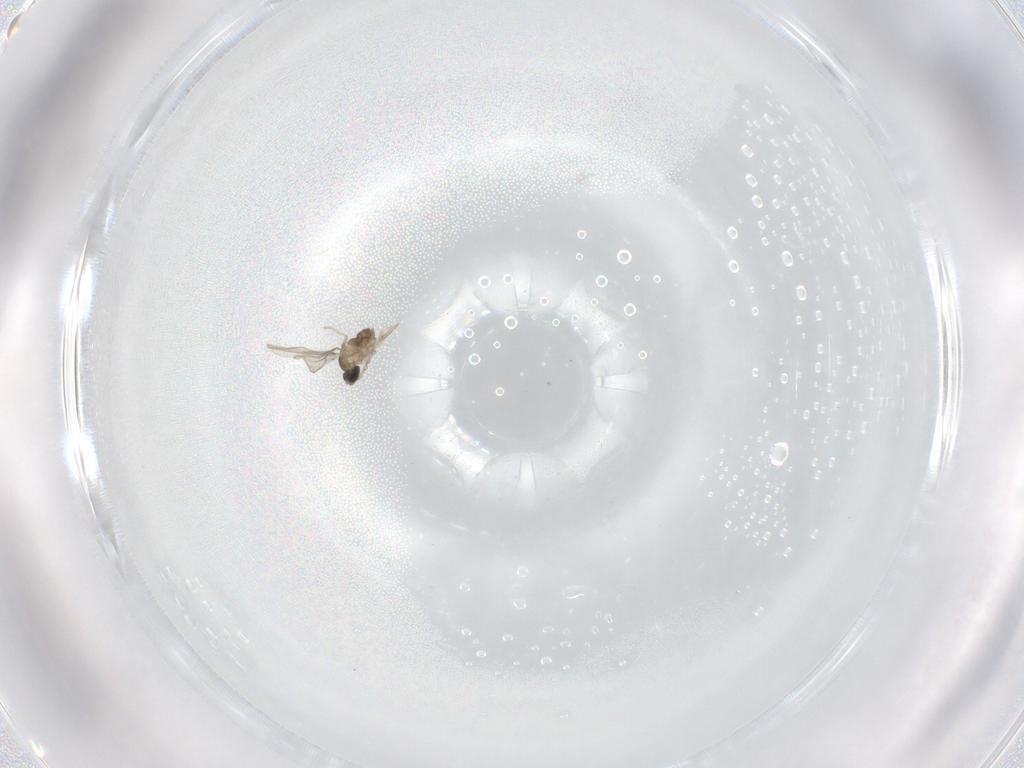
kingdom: Animalia
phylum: Arthropoda
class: Insecta
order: Diptera
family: Cecidomyiidae
